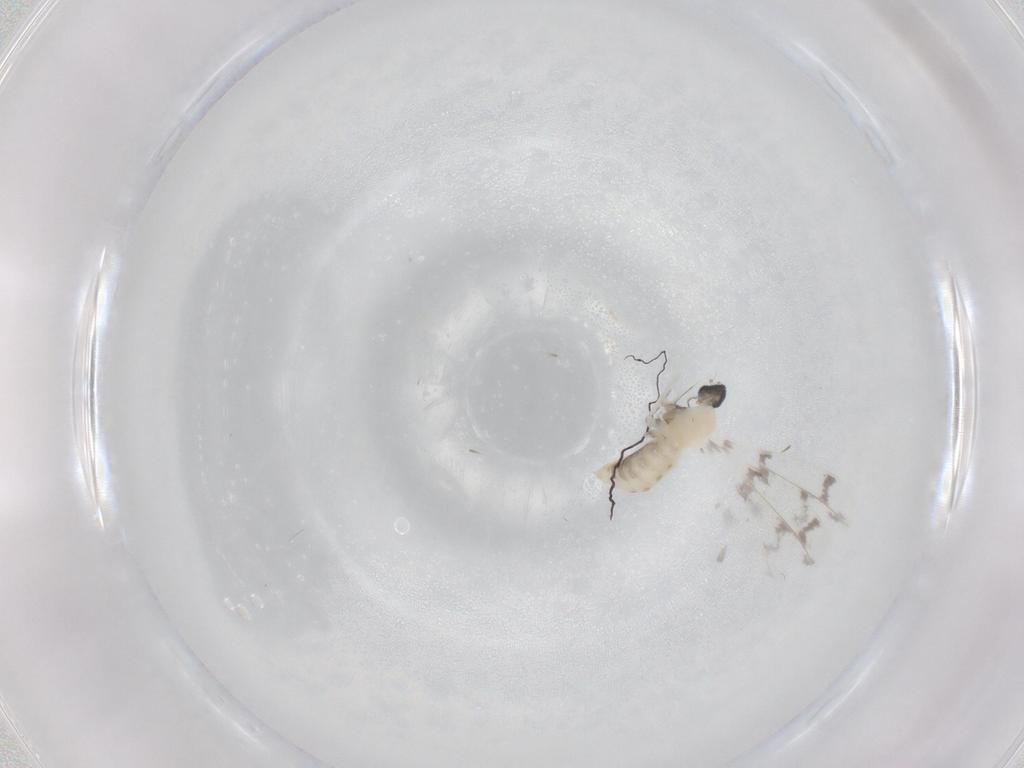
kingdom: Animalia
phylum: Arthropoda
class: Insecta
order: Diptera
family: Cecidomyiidae
